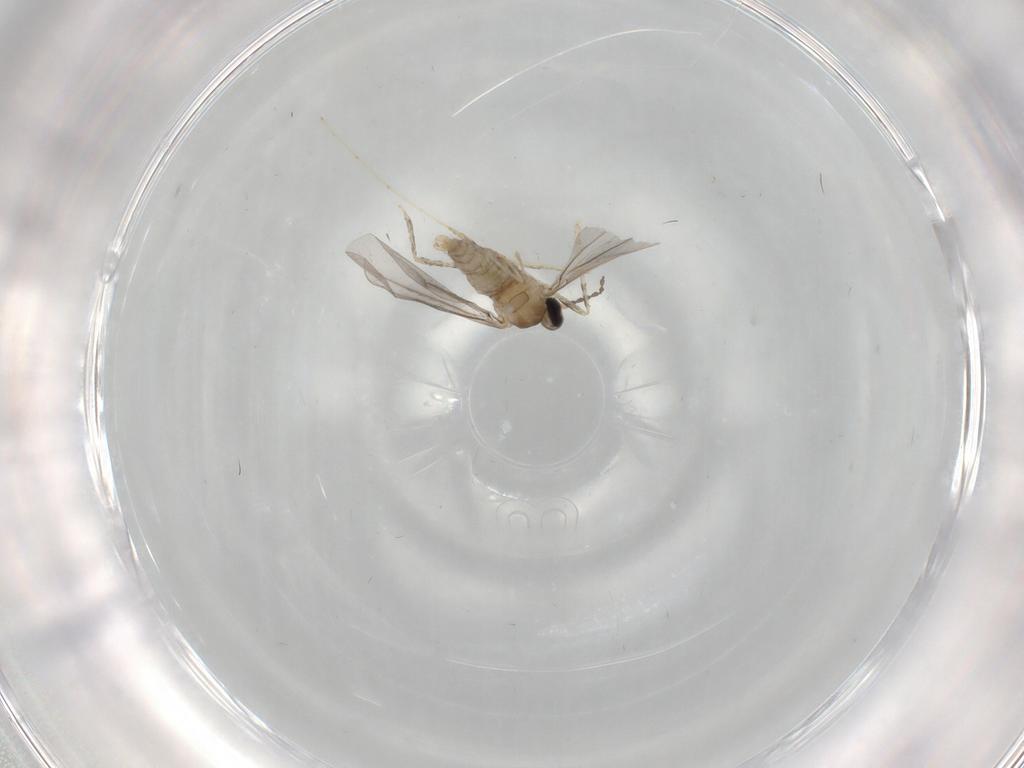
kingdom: Animalia
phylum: Arthropoda
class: Insecta
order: Diptera
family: Cecidomyiidae
